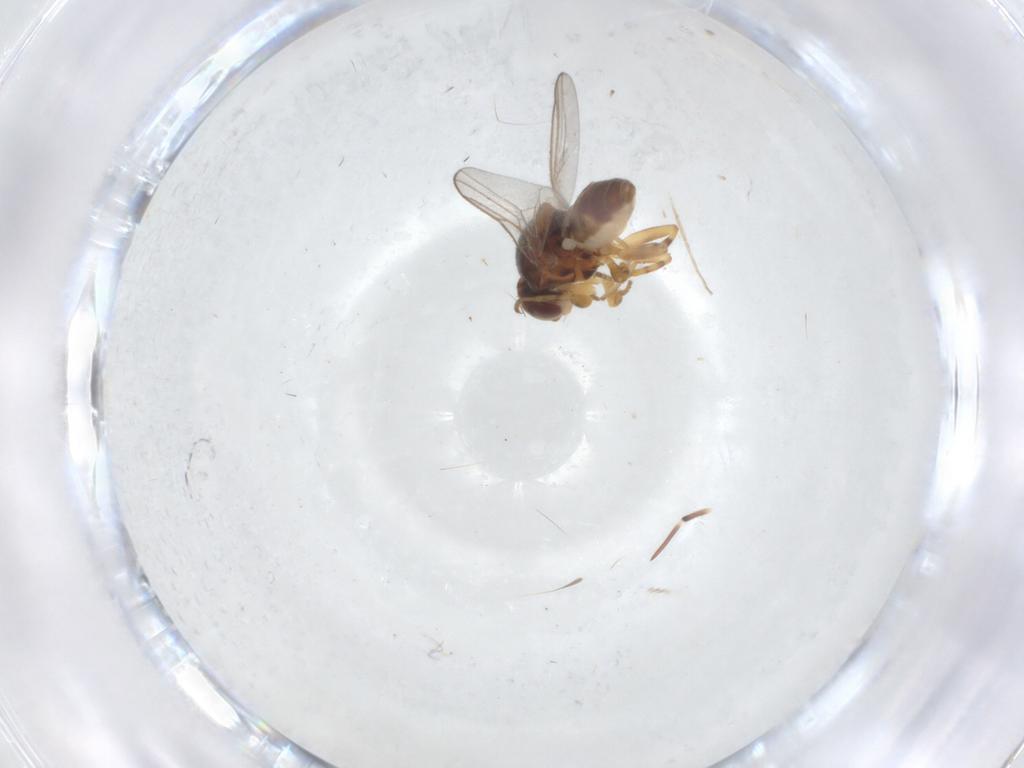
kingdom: Animalia
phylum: Arthropoda
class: Insecta
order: Diptera
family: Chloropidae
